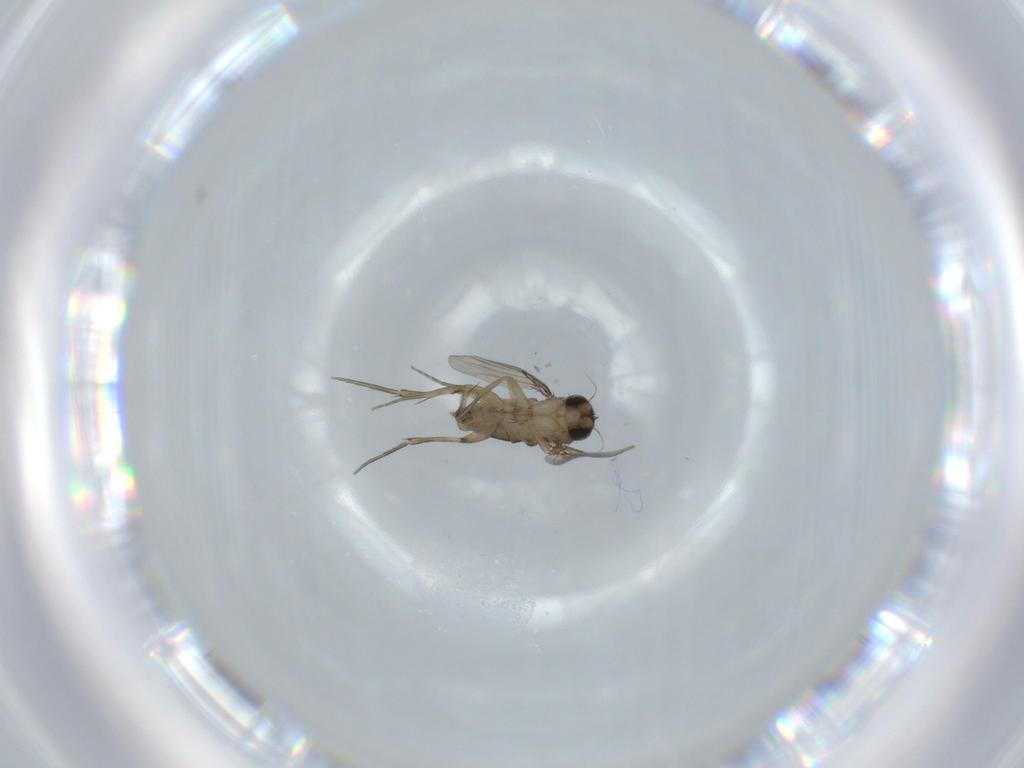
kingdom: Animalia
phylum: Arthropoda
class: Insecta
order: Diptera
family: Phoridae
